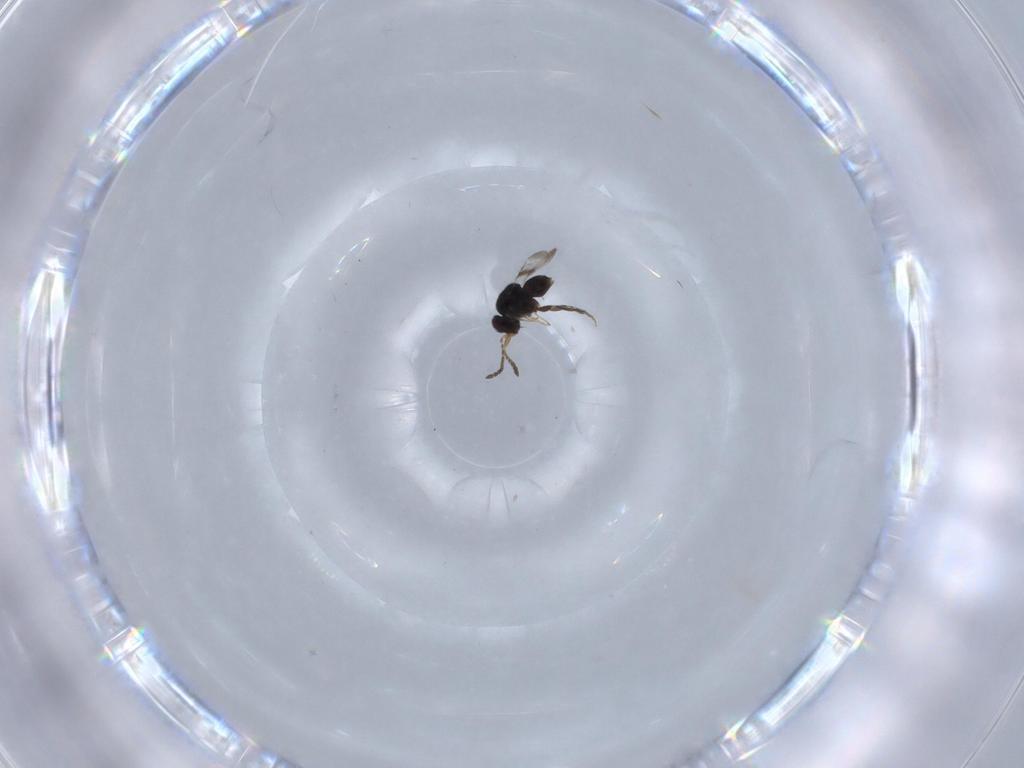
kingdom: Animalia
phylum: Arthropoda
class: Insecta
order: Hymenoptera
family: Ceraphronidae
